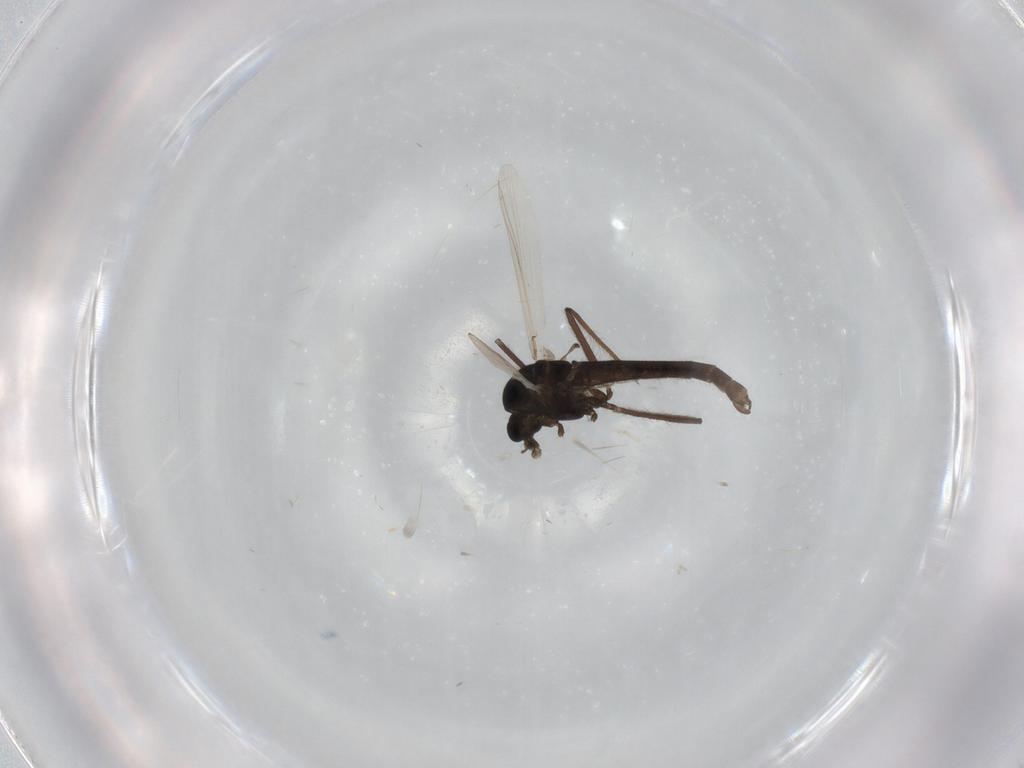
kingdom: Animalia
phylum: Arthropoda
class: Insecta
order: Diptera
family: Chironomidae
